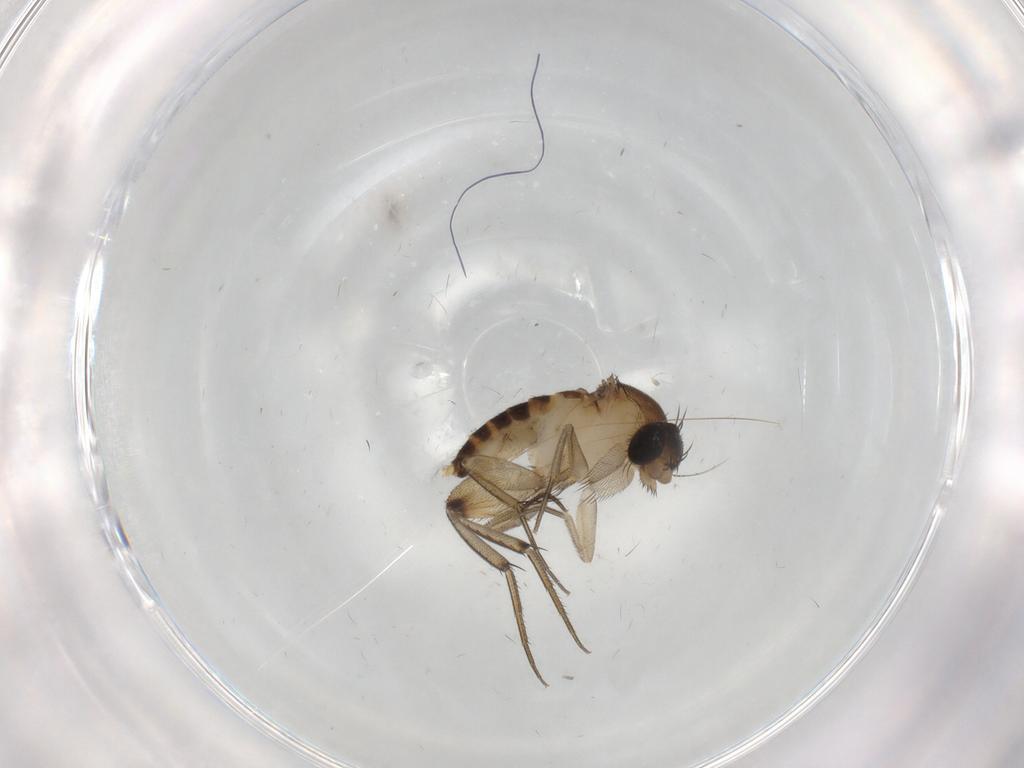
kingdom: Animalia
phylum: Arthropoda
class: Insecta
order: Diptera
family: Phoridae
